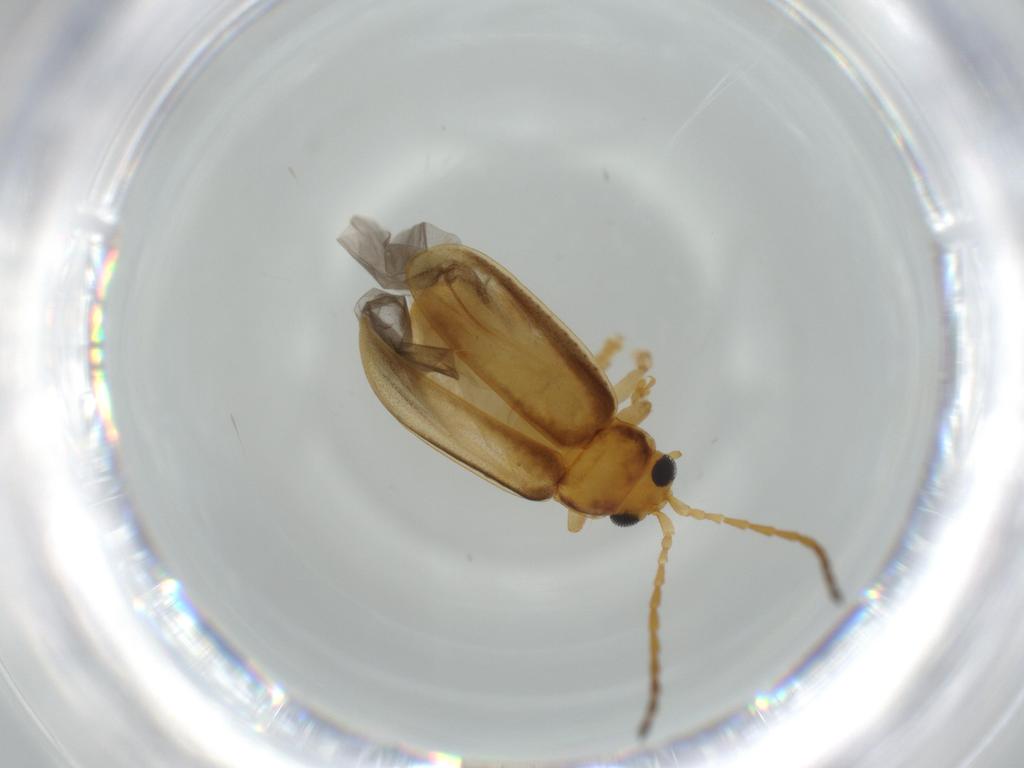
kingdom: Animalia
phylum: Arthropoda
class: Insecta
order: Coleoptera
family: Chrysomelidae
